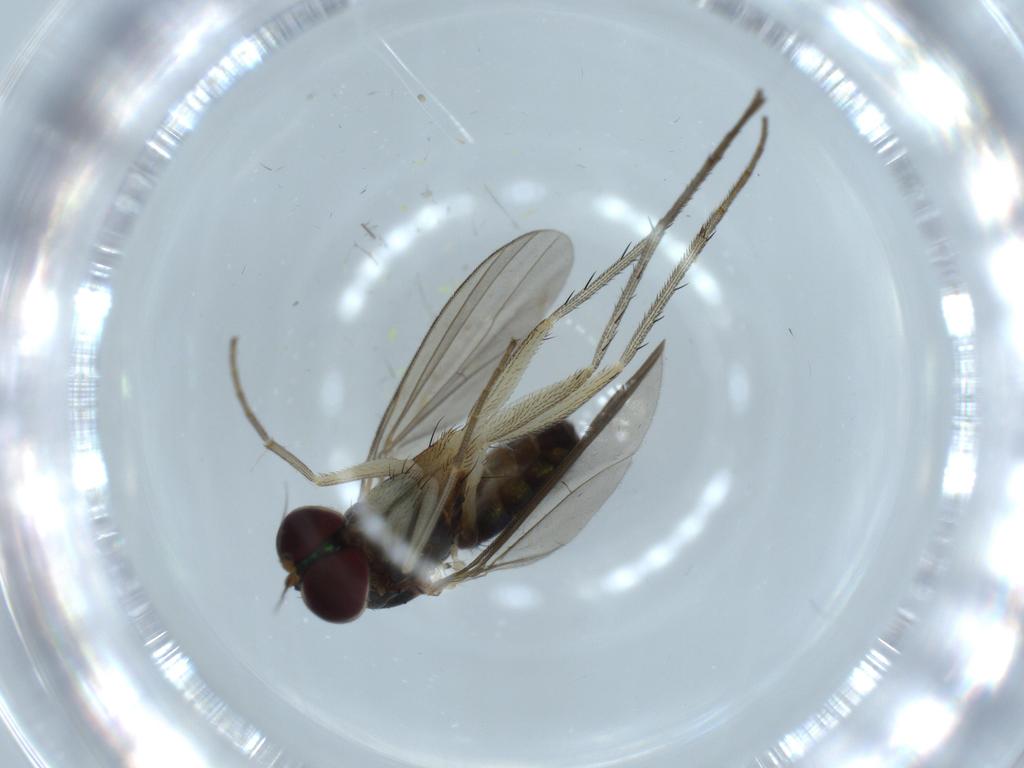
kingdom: Animalia
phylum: Arthropoda
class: Insecta
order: Diptera
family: Dolichopodidae
